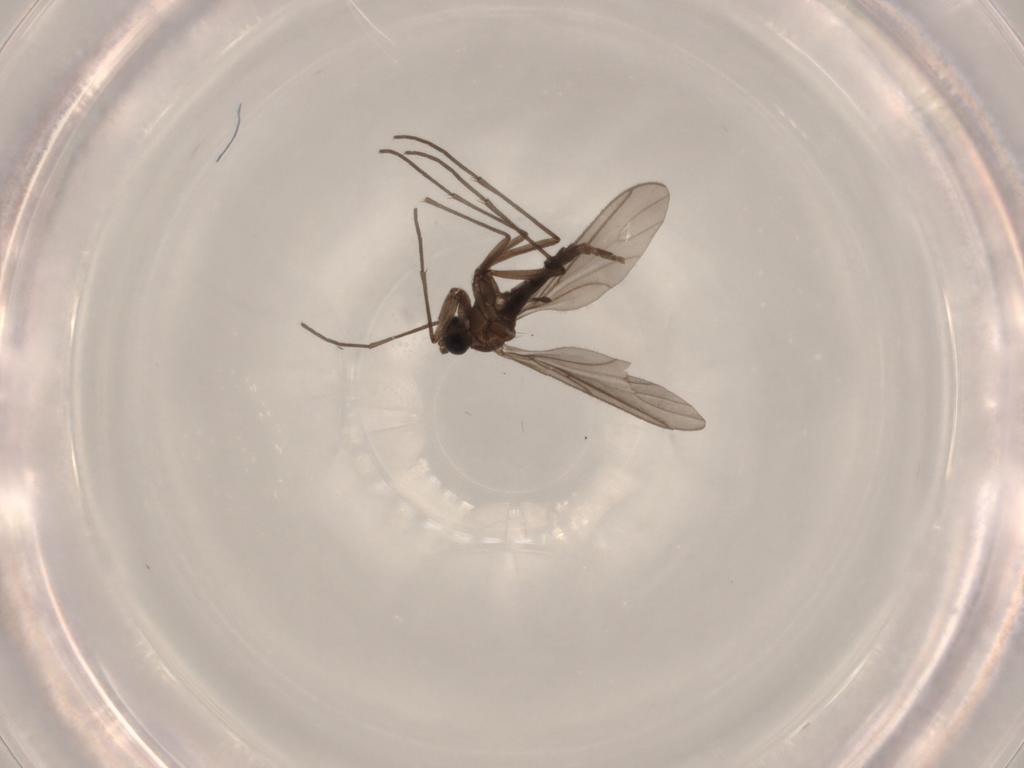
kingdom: Animalia
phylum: Arthropoda
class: Insecta
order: Diptera
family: Sciaridae
